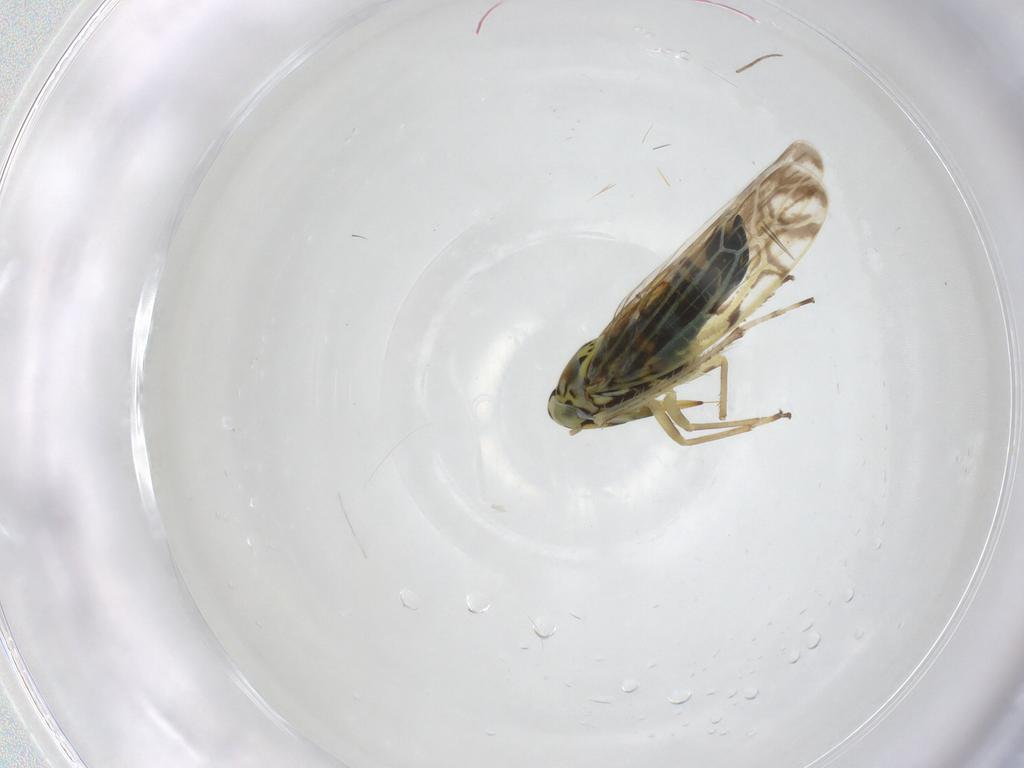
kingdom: Animalia
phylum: Arthropoda
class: Insecta
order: Hemiptera
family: Cicadellidae
